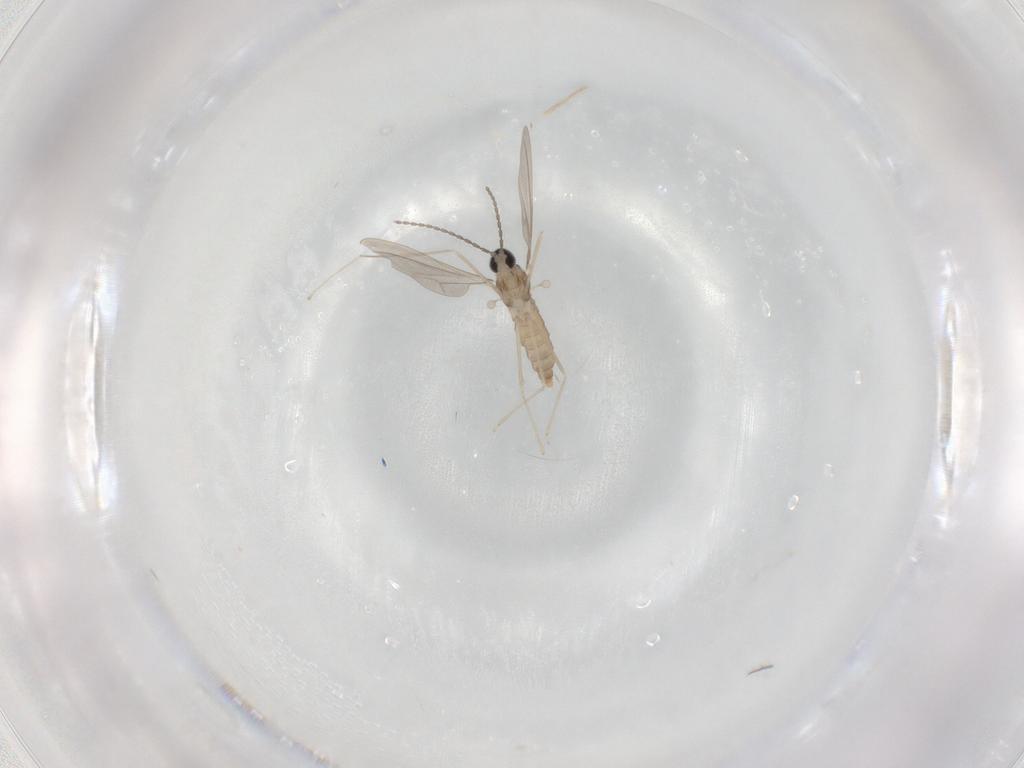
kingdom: Animalia
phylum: Arthropoda
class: Insecta
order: Diptera
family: Cecidomyiidae
